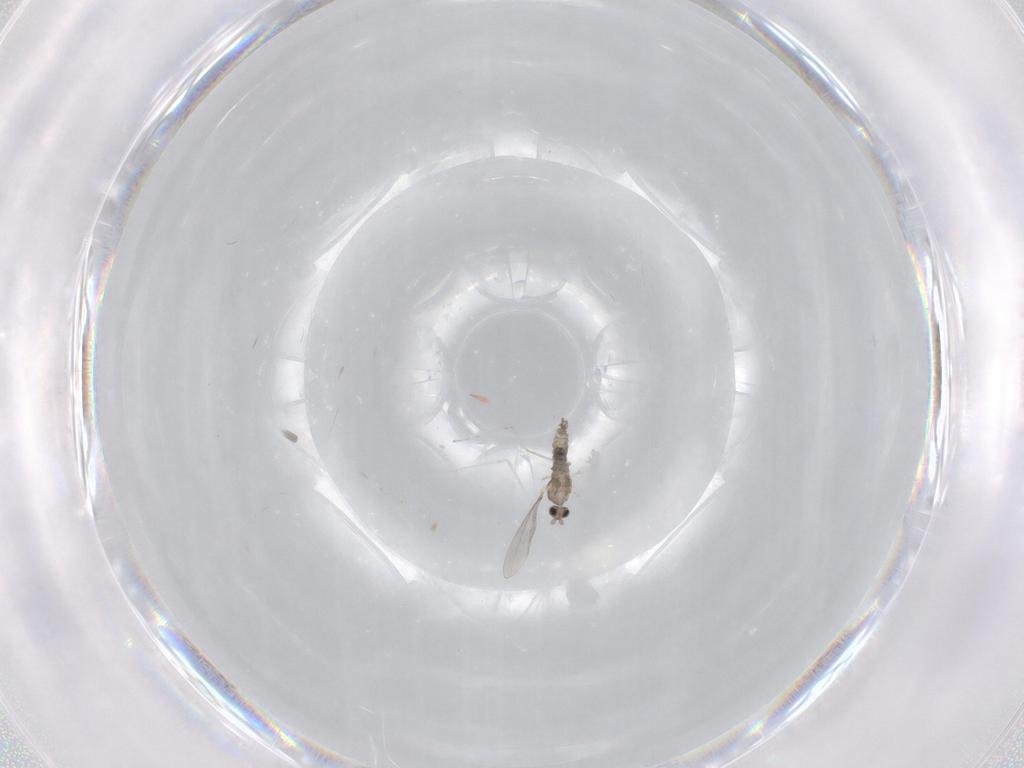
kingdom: Animalia
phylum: Arthropoda
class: Insecta
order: Diptera
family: Cecidomyiidae
